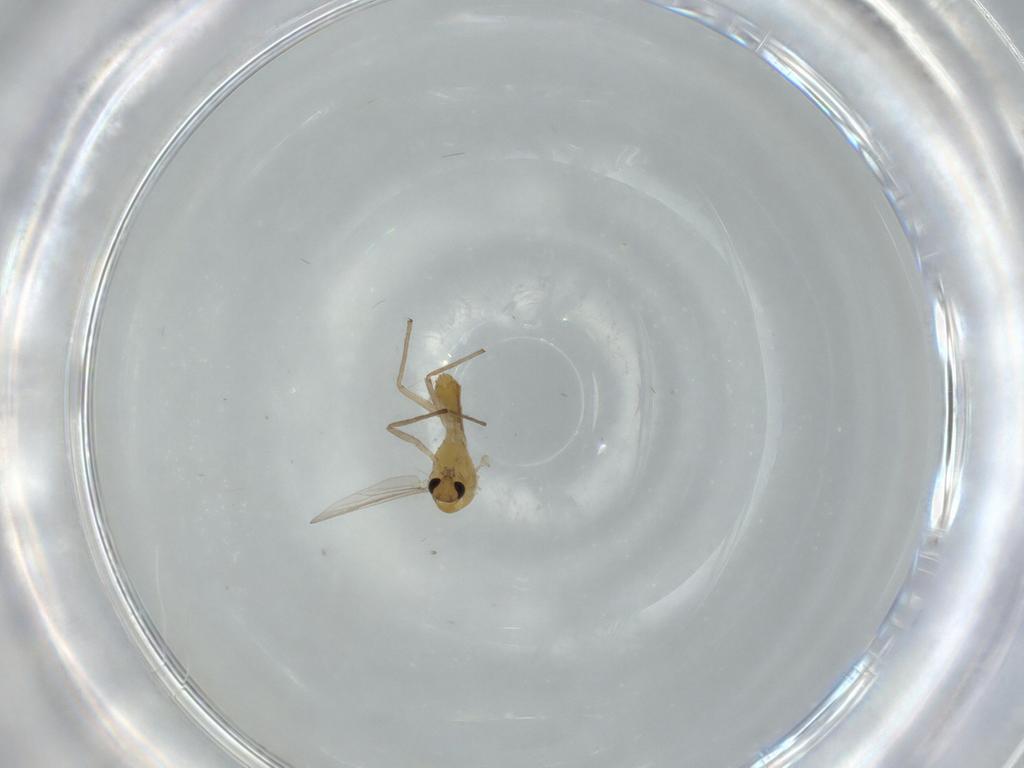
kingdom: Animalia
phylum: Arthropoda
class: Insecta
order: Diptera
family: Chironomidae
